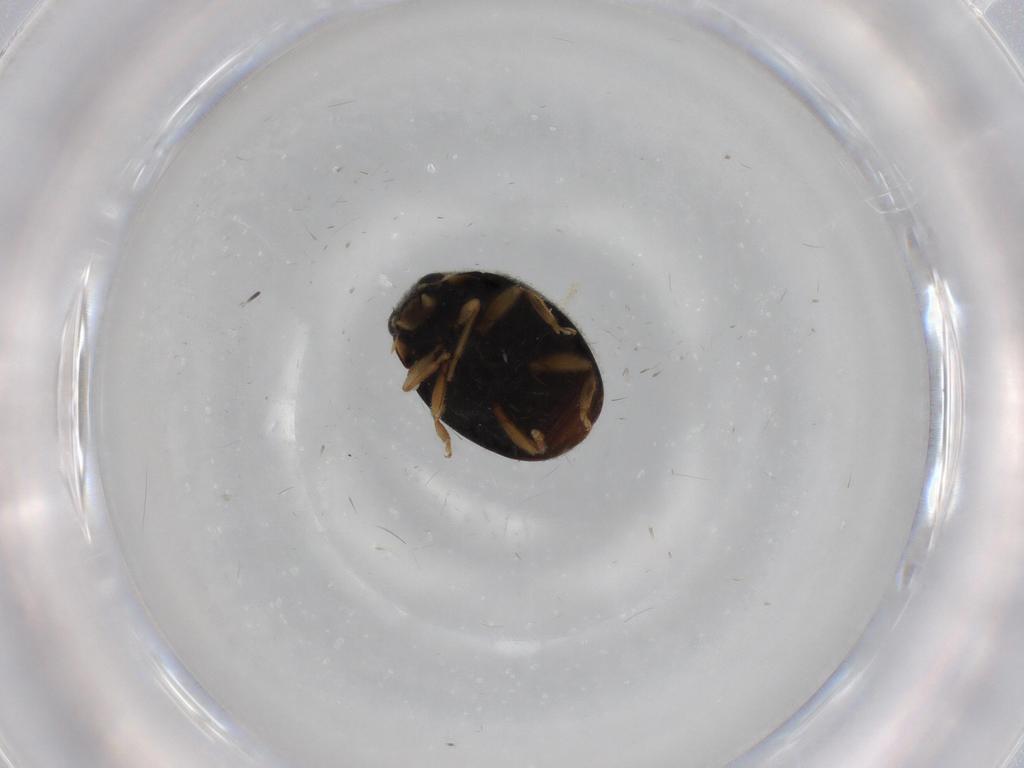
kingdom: Animalia
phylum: Arthropoda
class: Insecta
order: Coleoptera
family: Coccinellidae
